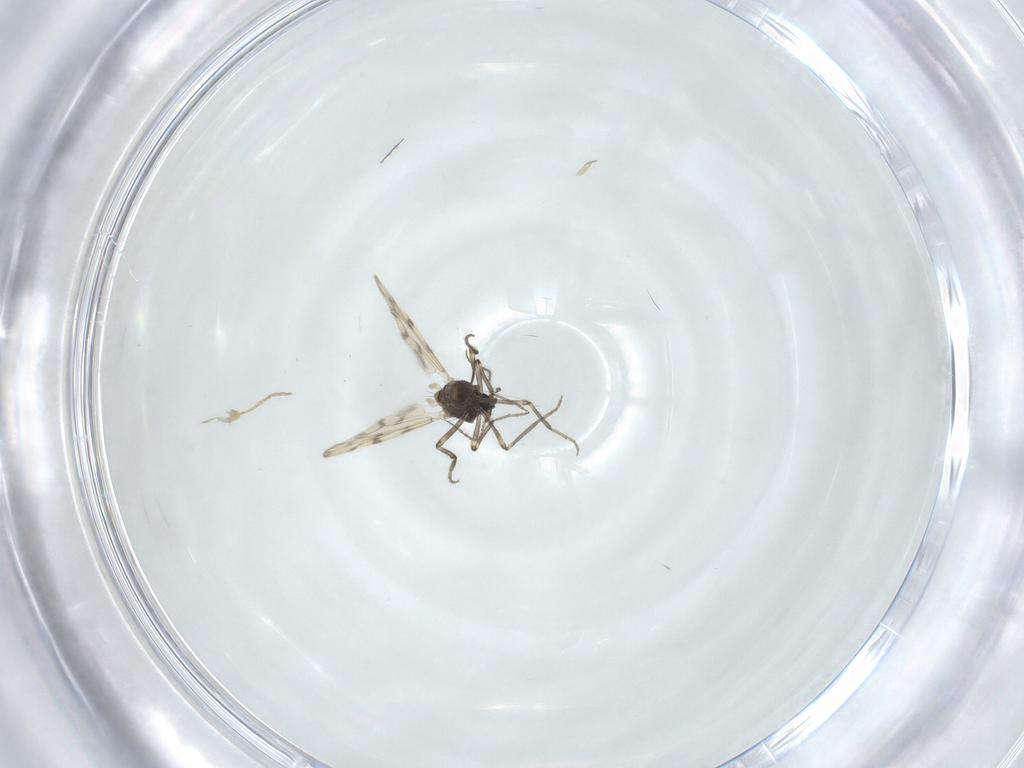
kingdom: Animalia
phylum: Arthropoda
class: Insecta
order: Diptera
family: Ceratopogonidae
